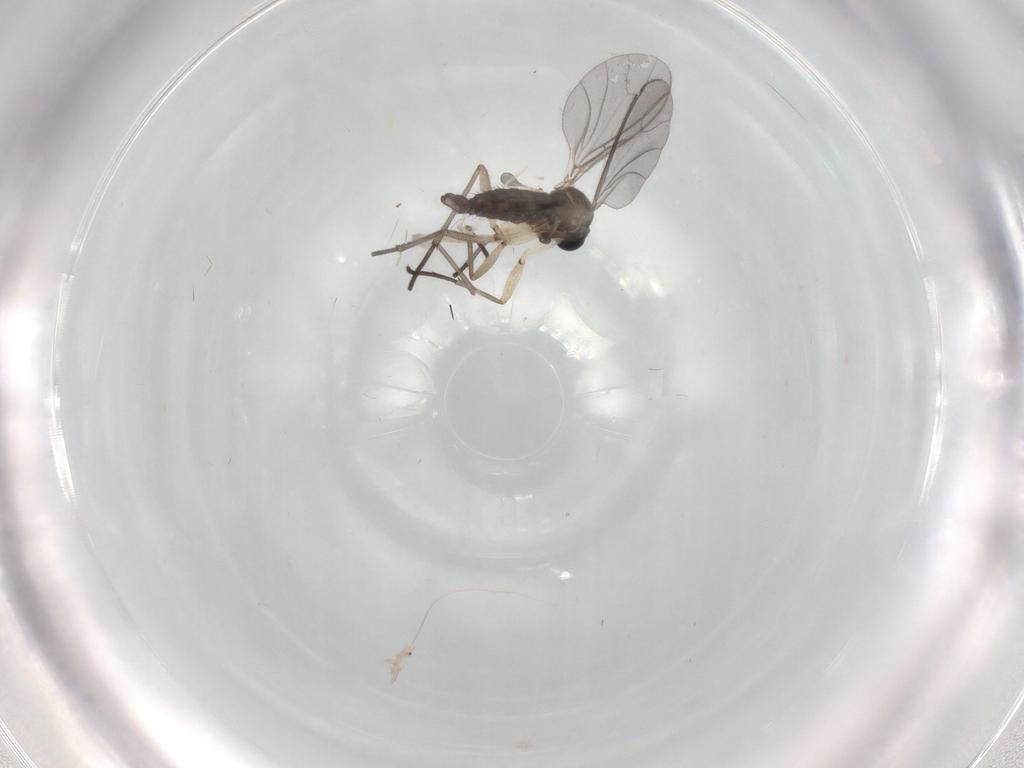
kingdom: Animalia
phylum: Arthropoda
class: Insecta
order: Diptera
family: Sciaridae
